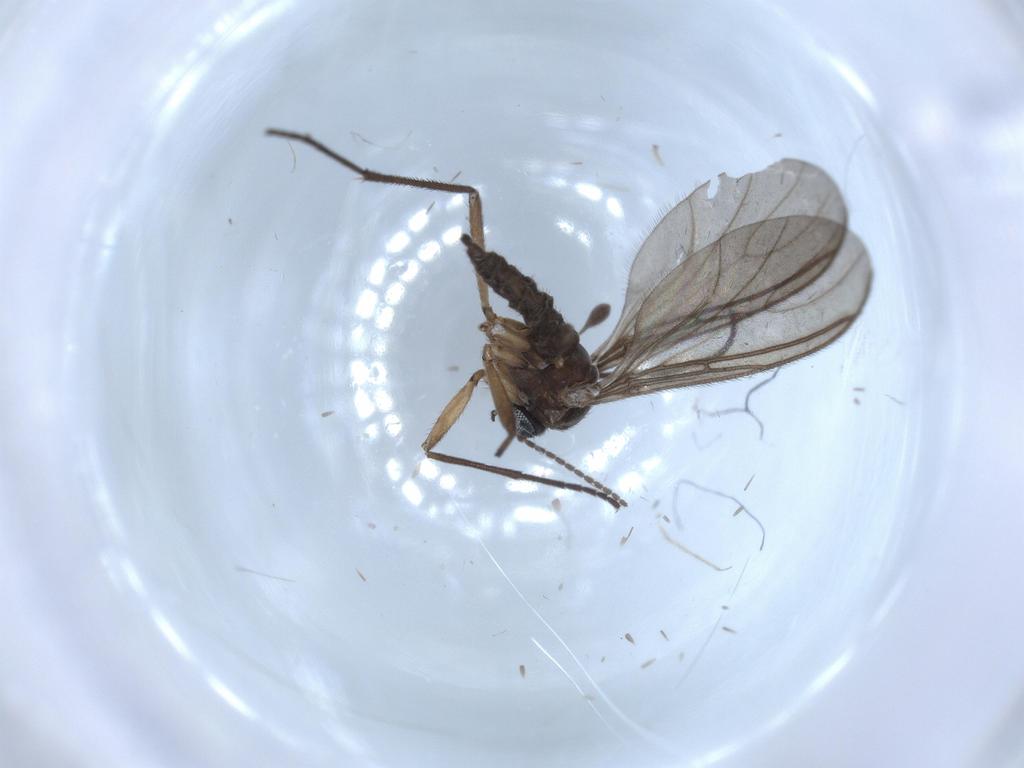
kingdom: Animalia
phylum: Arthropoda
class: Insecta
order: Diptera
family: Sciaridae
